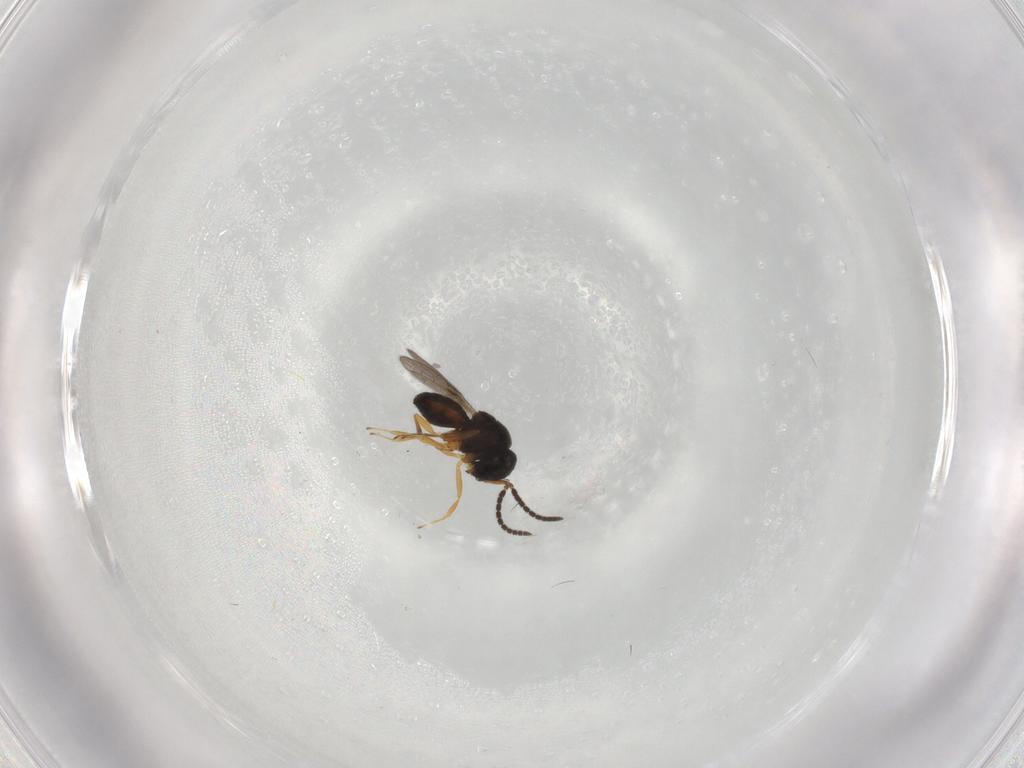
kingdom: Animalia
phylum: Arthropoda
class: Insecta
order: Hymenoptera
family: Scelionidae
